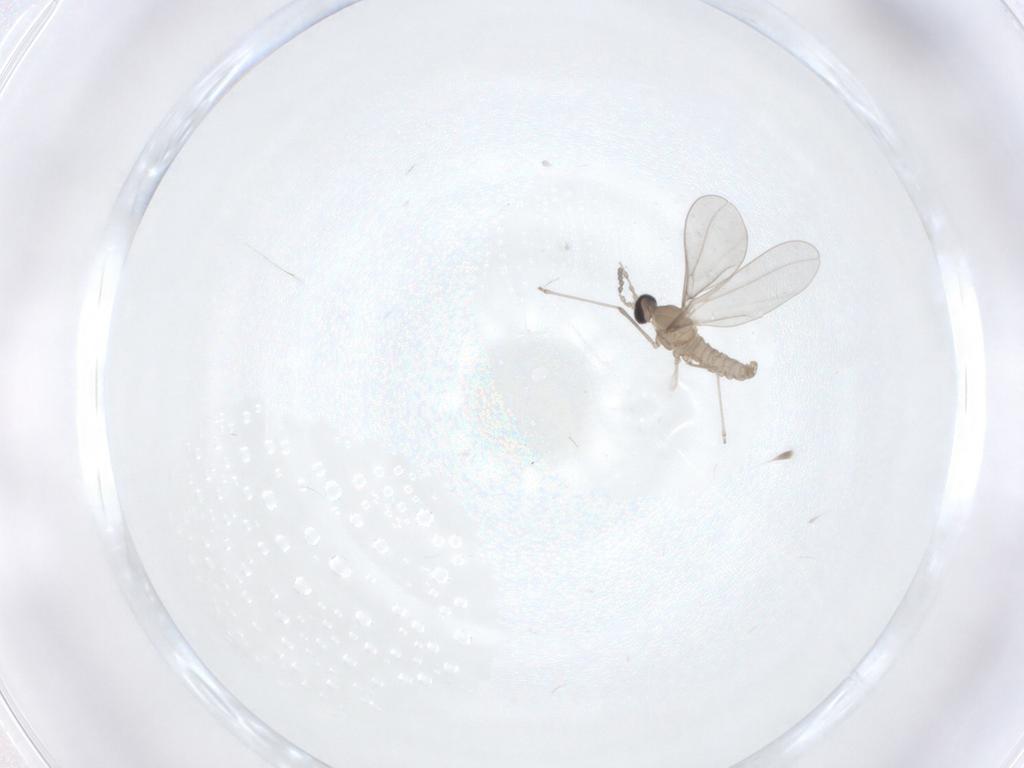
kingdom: Animalia
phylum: Arthropoda
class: Insecta
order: Diptera
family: Cecidomyiidae
